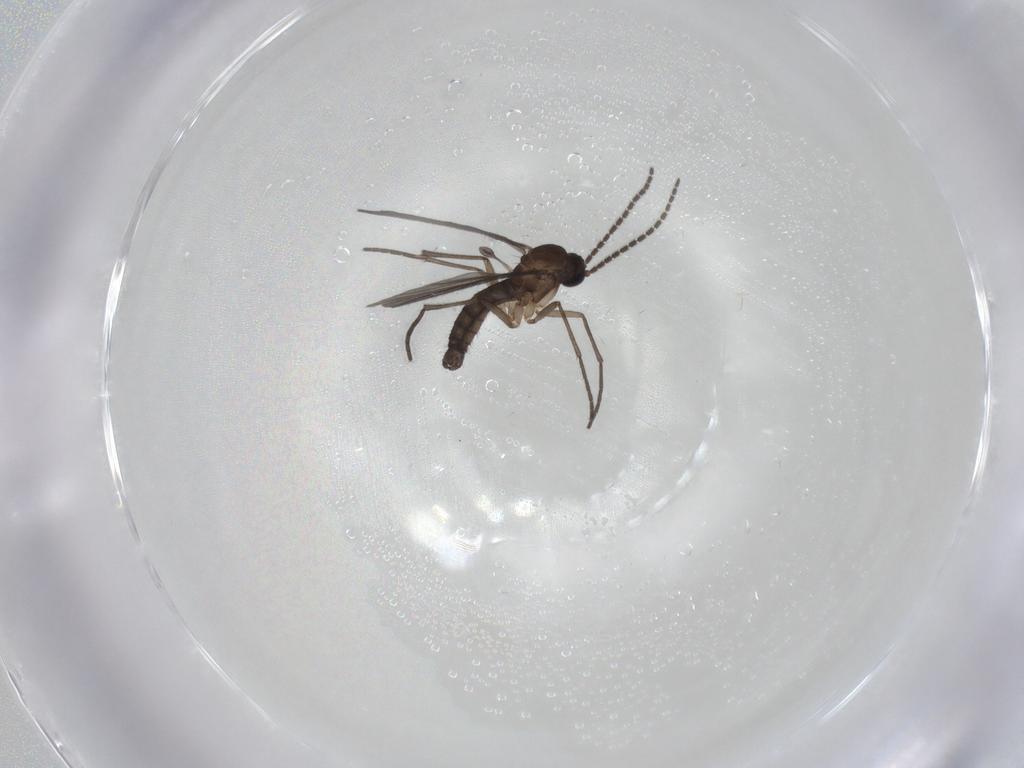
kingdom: Animalia
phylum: Arthropoda
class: Insecta
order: Diptera
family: Sciaridae
